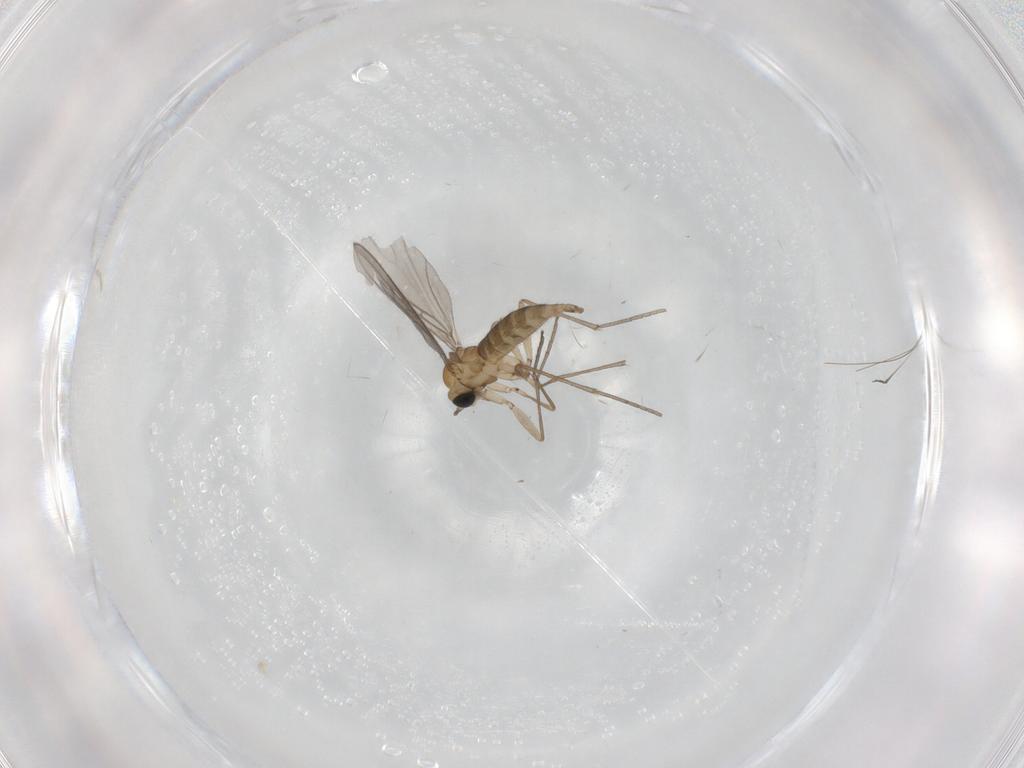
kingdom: Animalia
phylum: Arthropoda
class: Insecta
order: Diptera
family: Sciaridae
